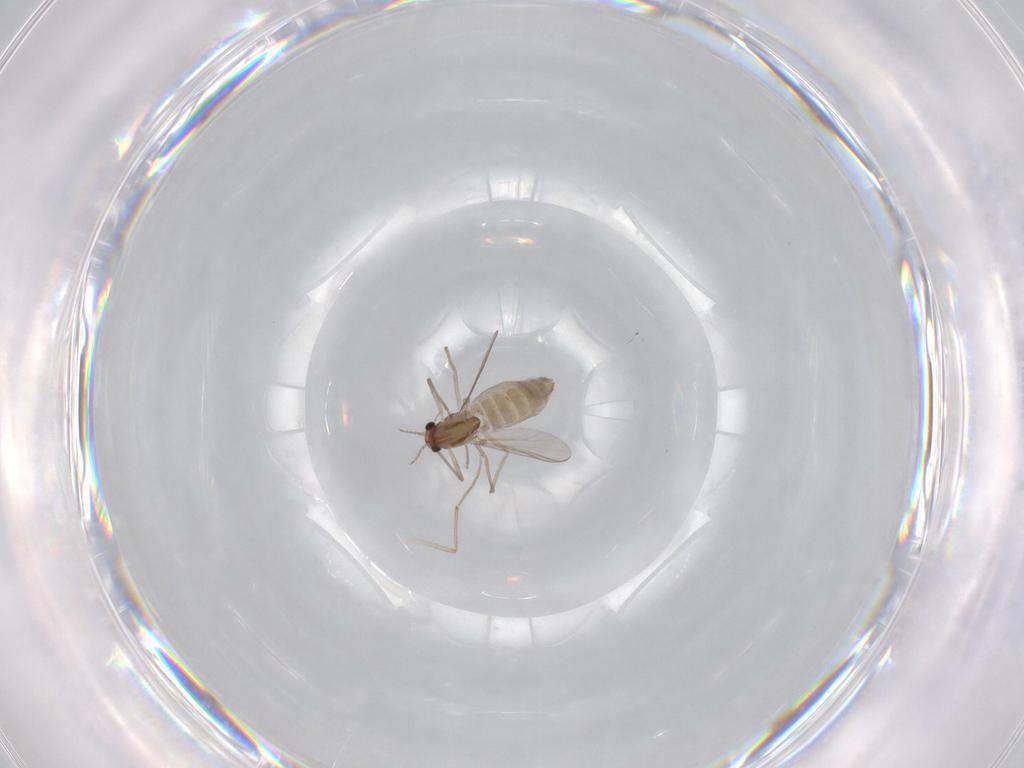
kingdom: Animalia
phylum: Arthropoda
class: Insecta
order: Diptera
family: Chironomidae
